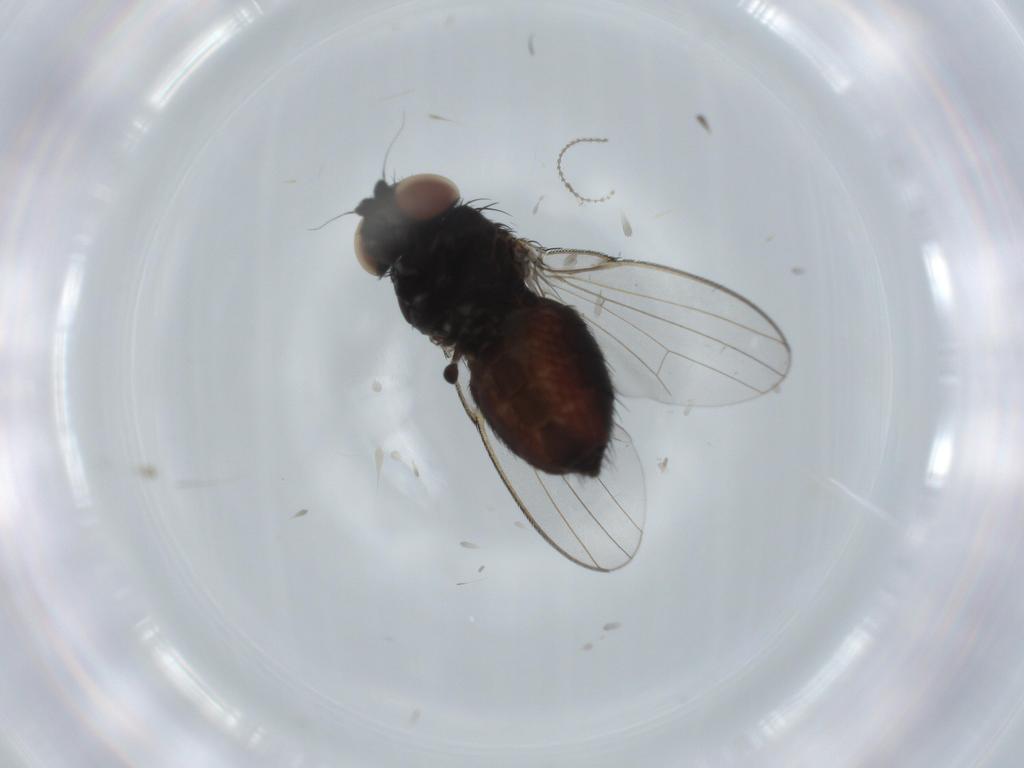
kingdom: Animalia
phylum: Arthropoda
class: Insecta
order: Diptera
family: Milichiidae
